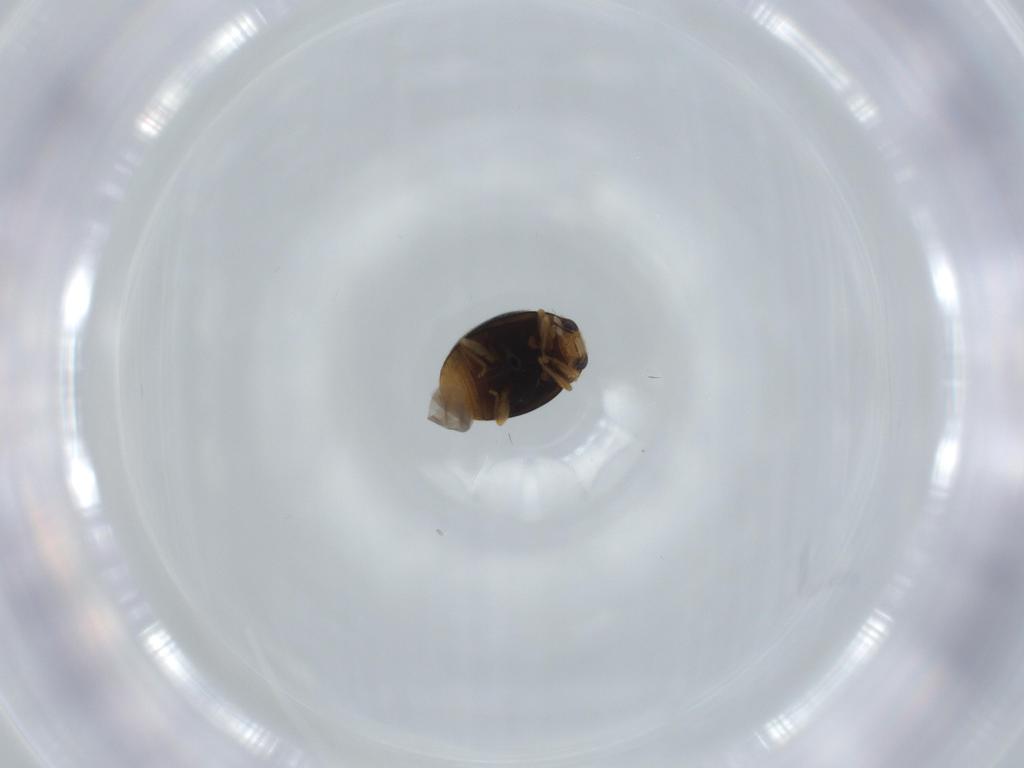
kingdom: Animalia
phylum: Arthropoda
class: Insecta
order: Coleoptera
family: Coccinellidae
